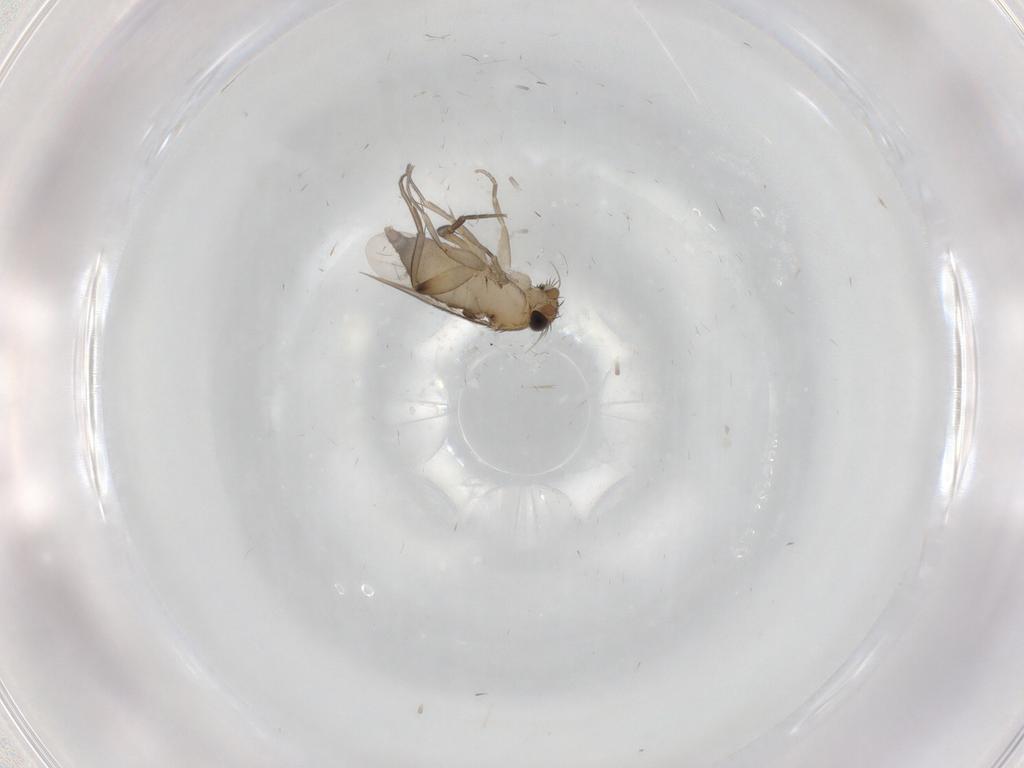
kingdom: Animalia
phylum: Arthropoda
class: Insecta
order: Diptera
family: Phoridae
